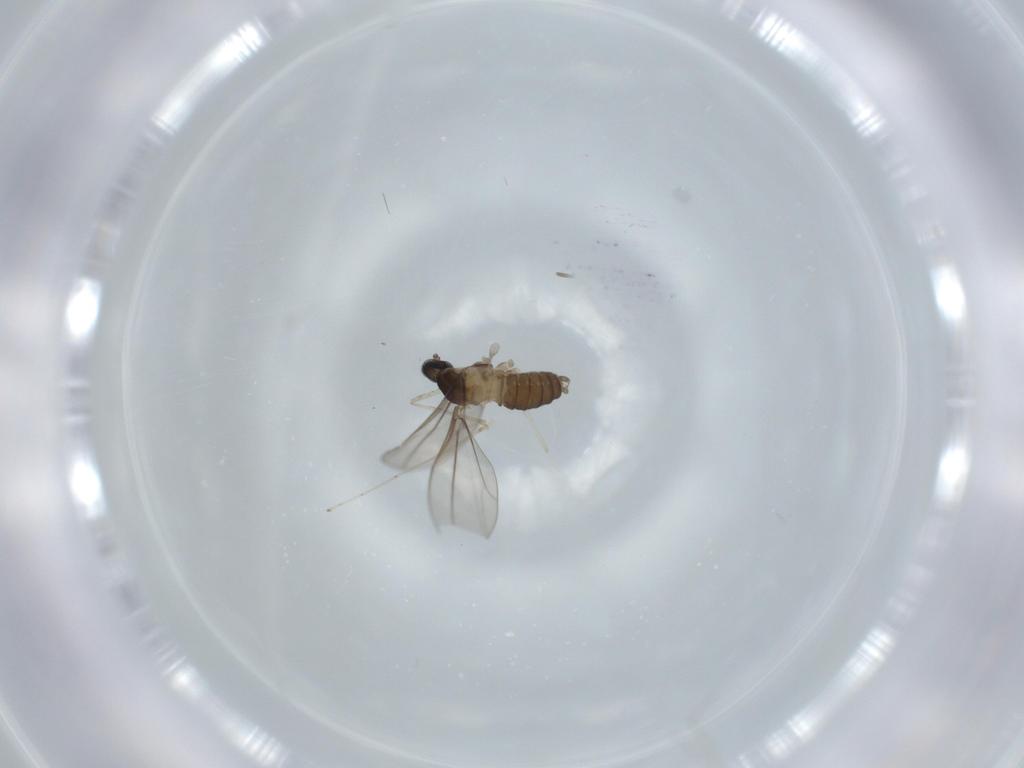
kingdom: Animalia
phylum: Arthropoda
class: Insecta
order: Diptera
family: Cecidomyiidae
